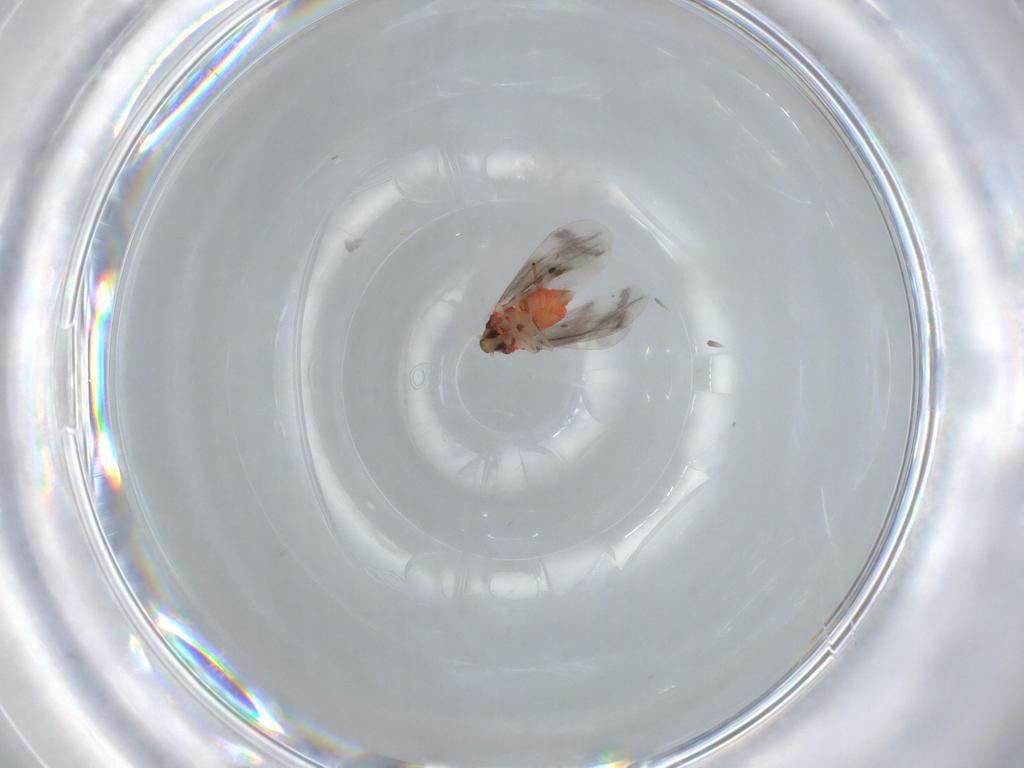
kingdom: Animalia
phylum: Arthropoda
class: Insecta
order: Hemiptera
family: Aleyrodidae
